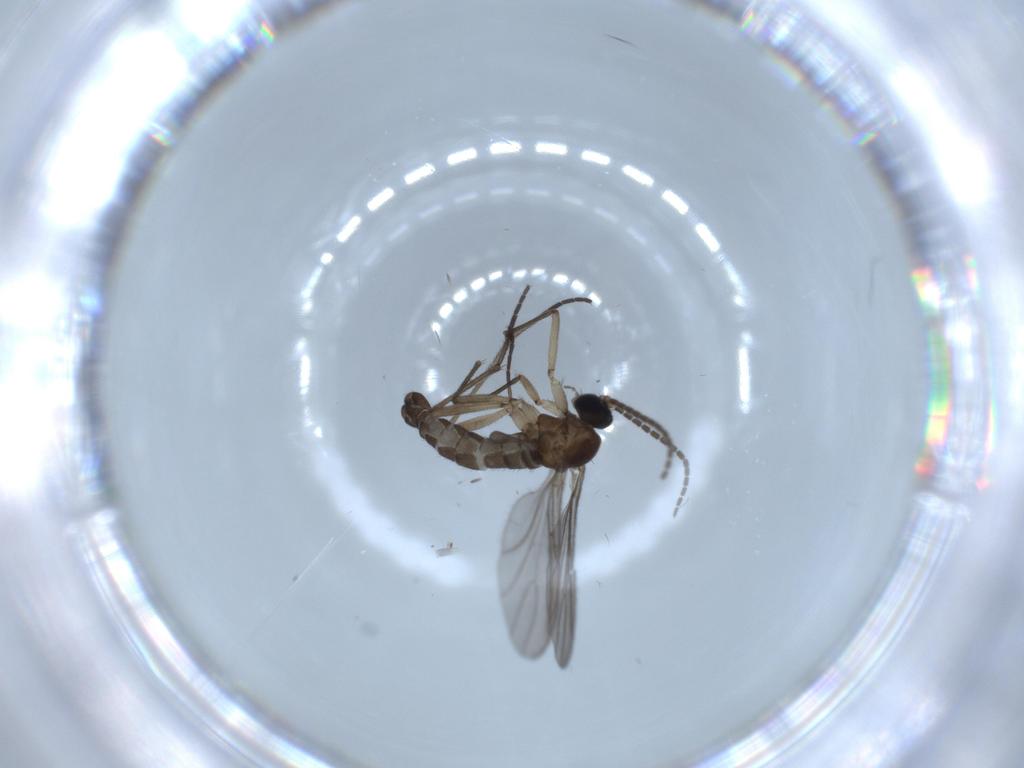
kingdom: Animalia
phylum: Arthropoda
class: Insecta
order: Diptera
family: Sciaridae
